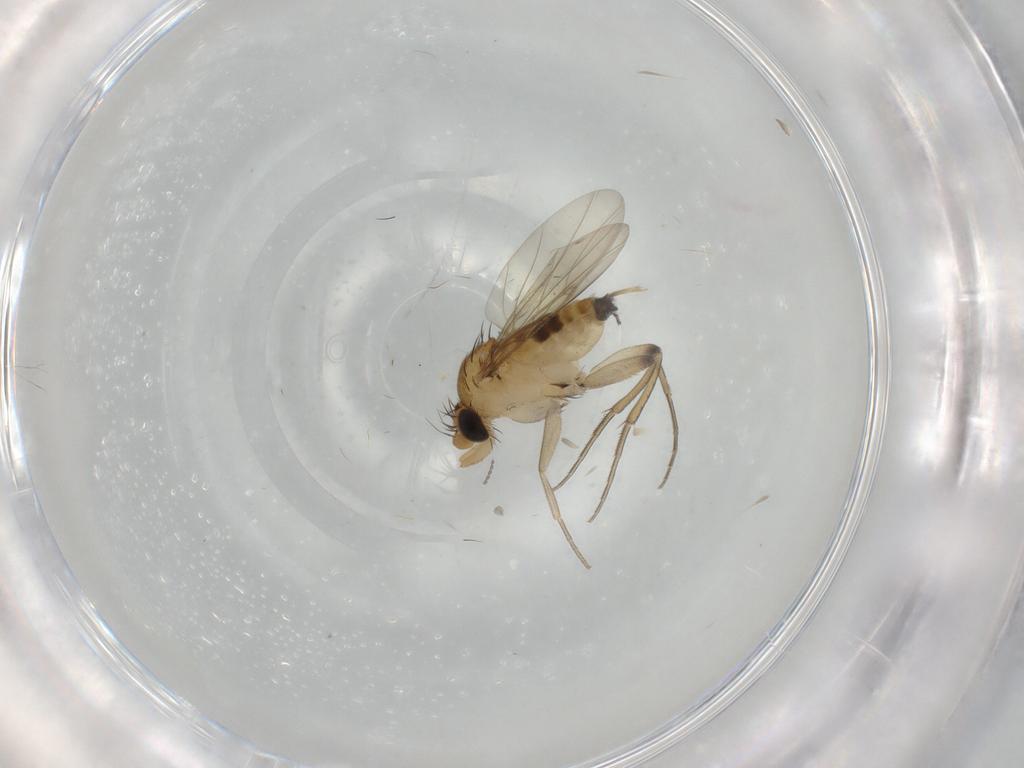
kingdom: Animalia
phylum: Arthropoda
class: Insecta
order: Diptera
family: Phoridae
